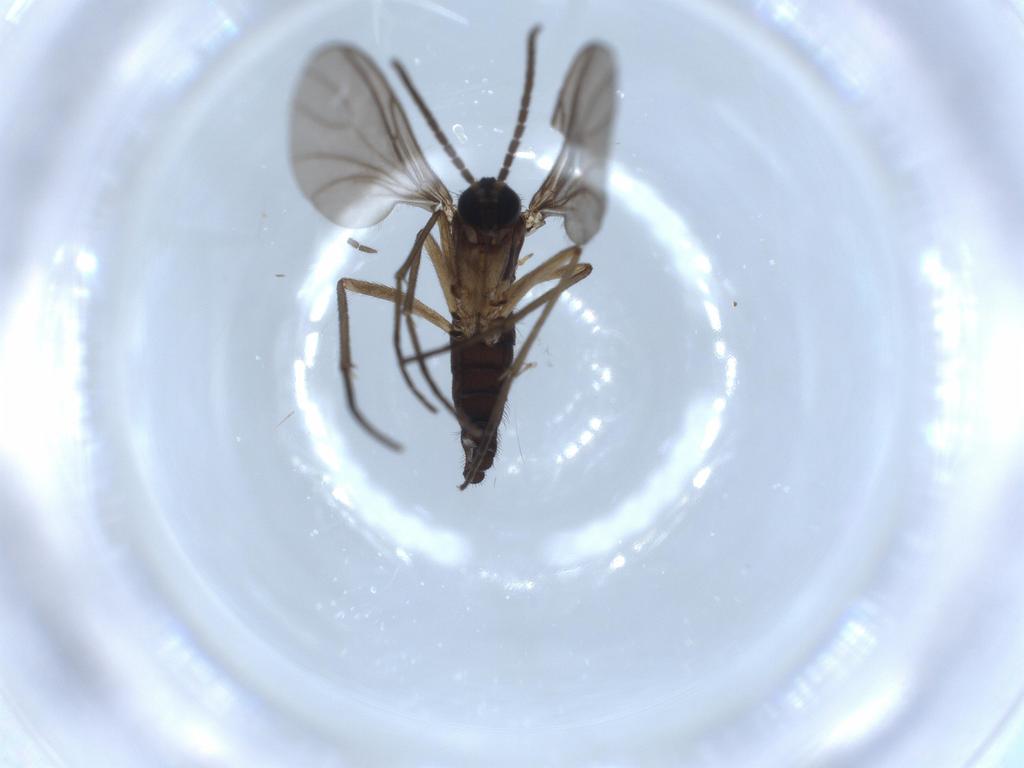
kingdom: Animalia
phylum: Arthropoda
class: Insecta
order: Diptera
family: Sciaridae
